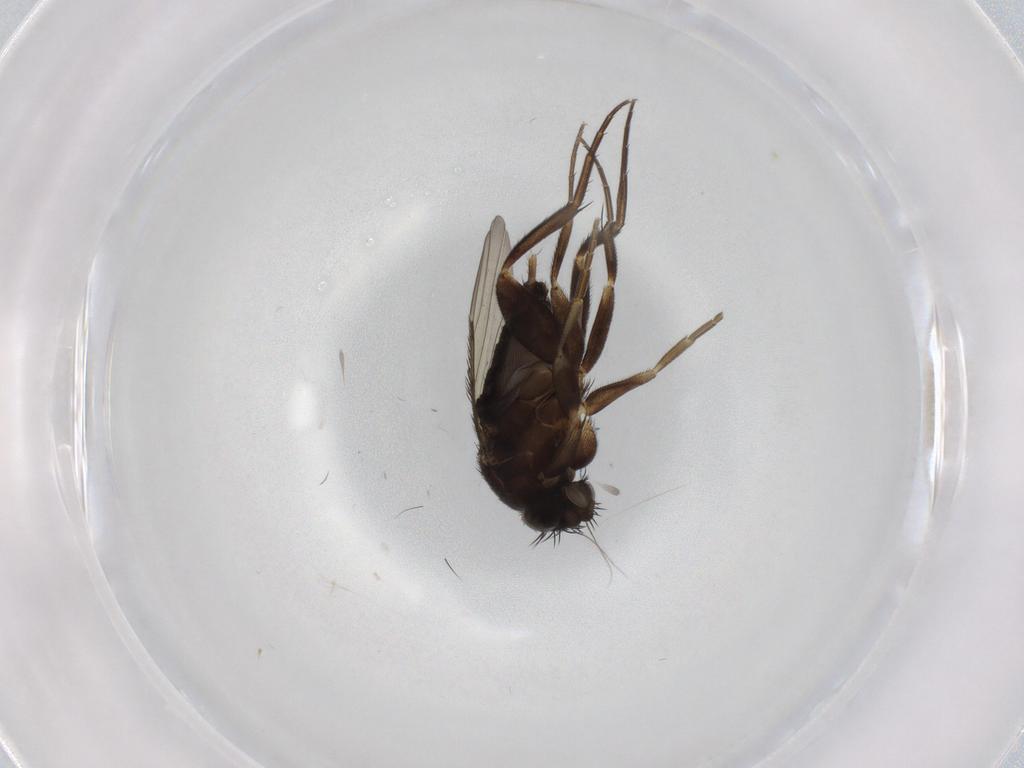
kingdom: Animalia
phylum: Arthropoda
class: Insecta
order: Diptera
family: Phoridae
